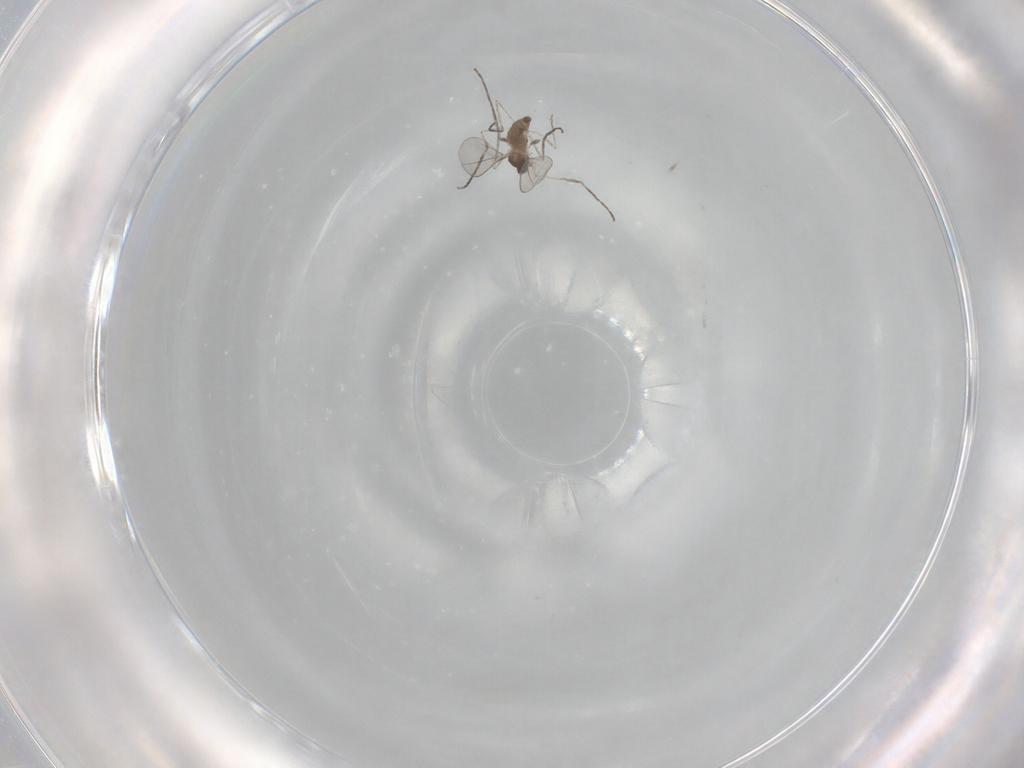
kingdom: Animalia
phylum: Arthropoda
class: Insecta
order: Diptera
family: Cecidomyiidae
